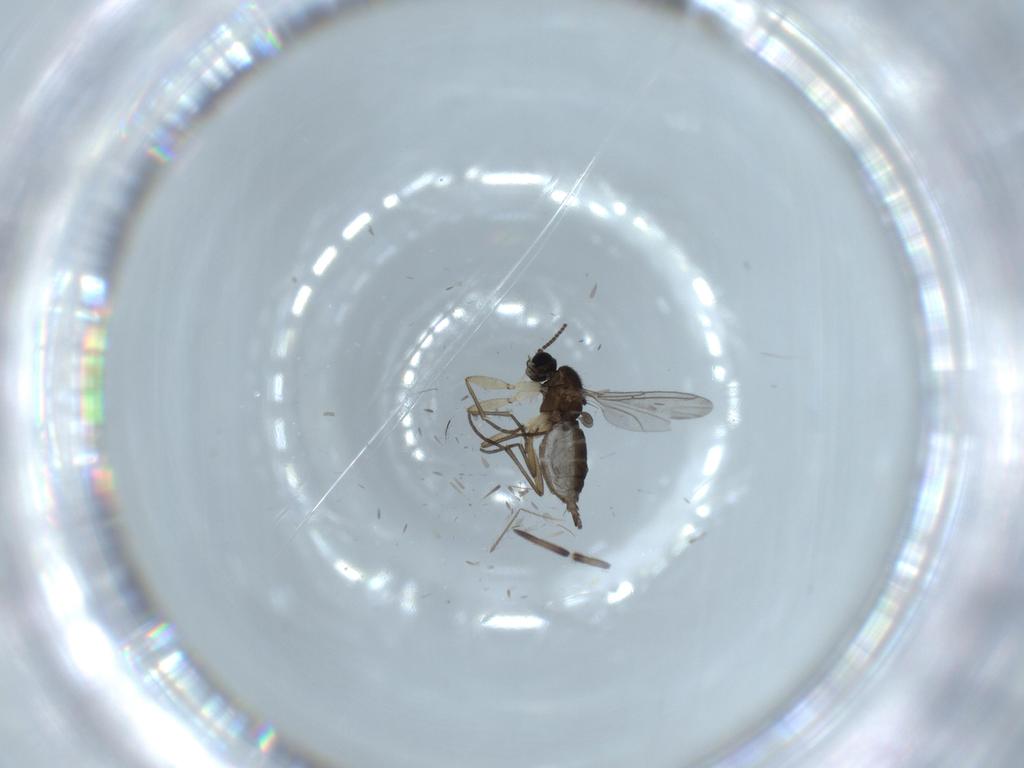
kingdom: Animalia
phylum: Arthropoda
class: Insecta
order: Diptera
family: Sciaridae
